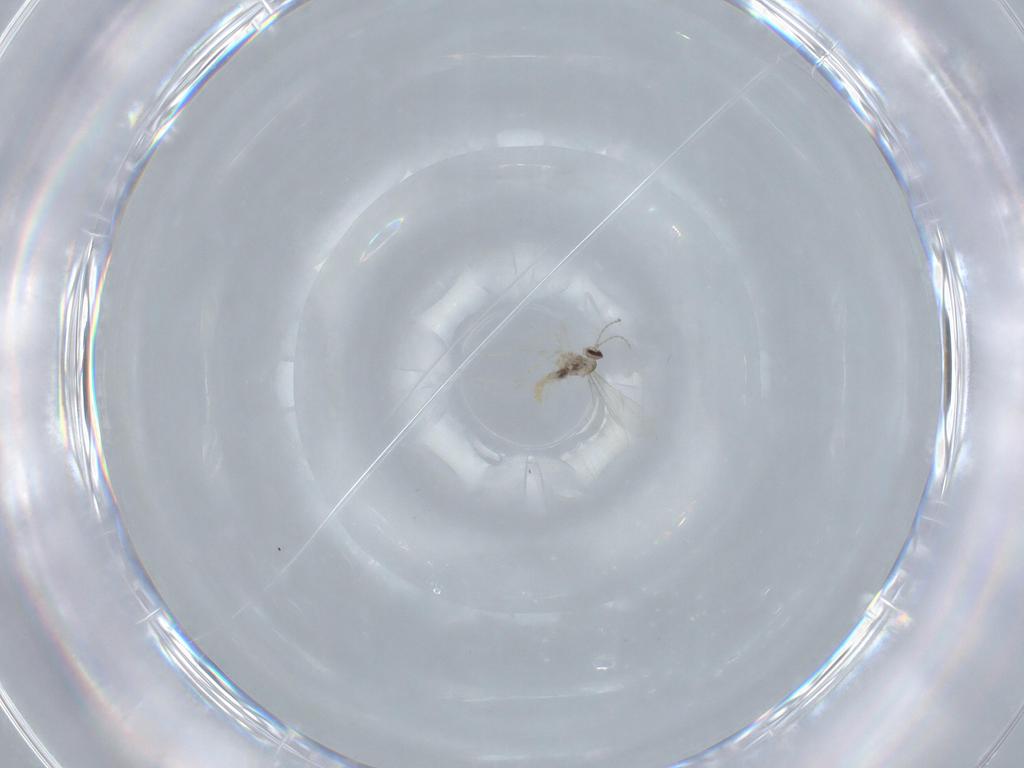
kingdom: Animalia
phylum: Arthropoda
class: Insecta
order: Diptera
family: Cecidomyiidae
